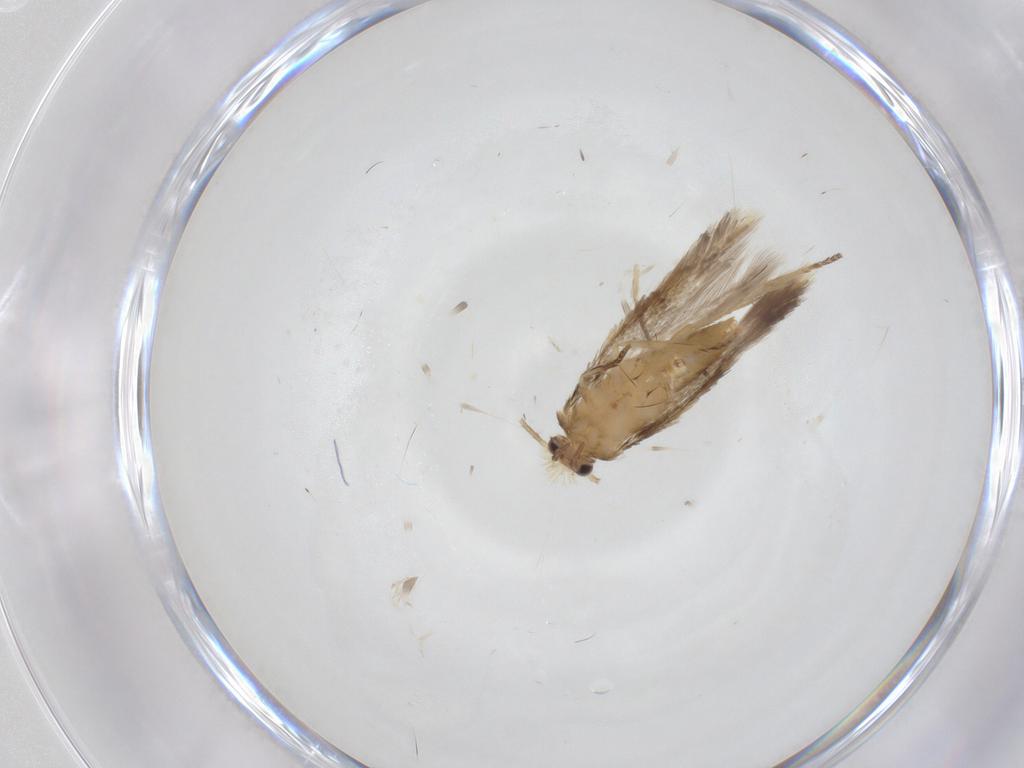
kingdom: Animalia
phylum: Arthropoda
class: Insecta
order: Lepidoptera
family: Nepticulidae
